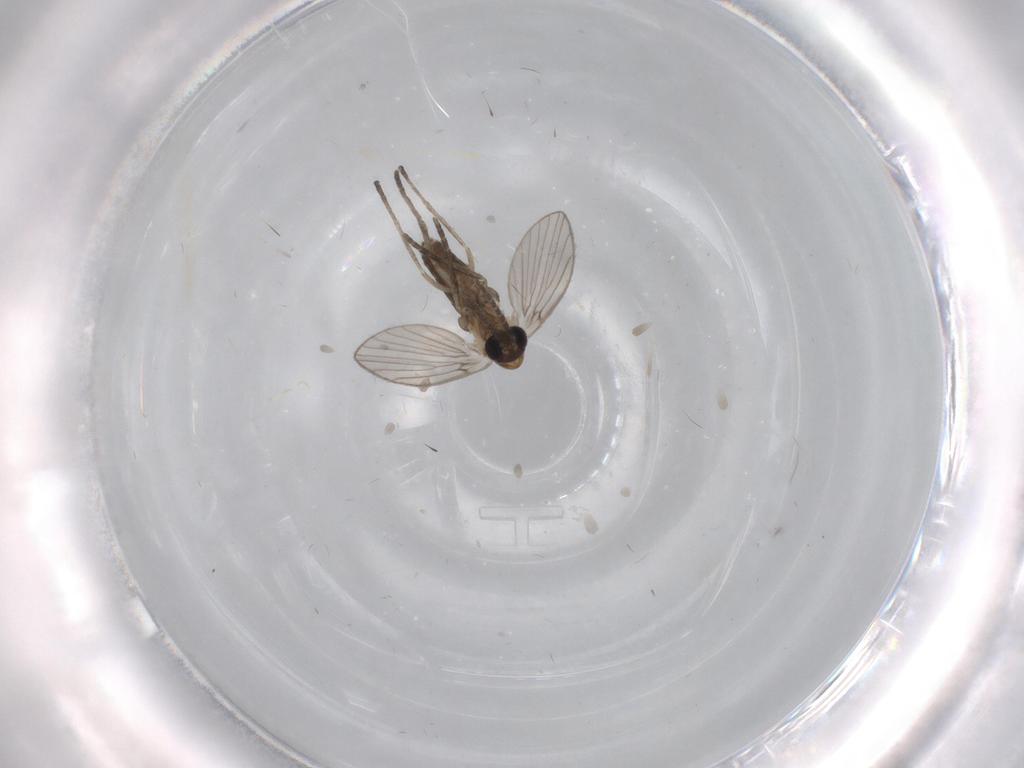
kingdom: Animalia
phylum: Arthropoda
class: Insecta
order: Diptera
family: Psychodidae
